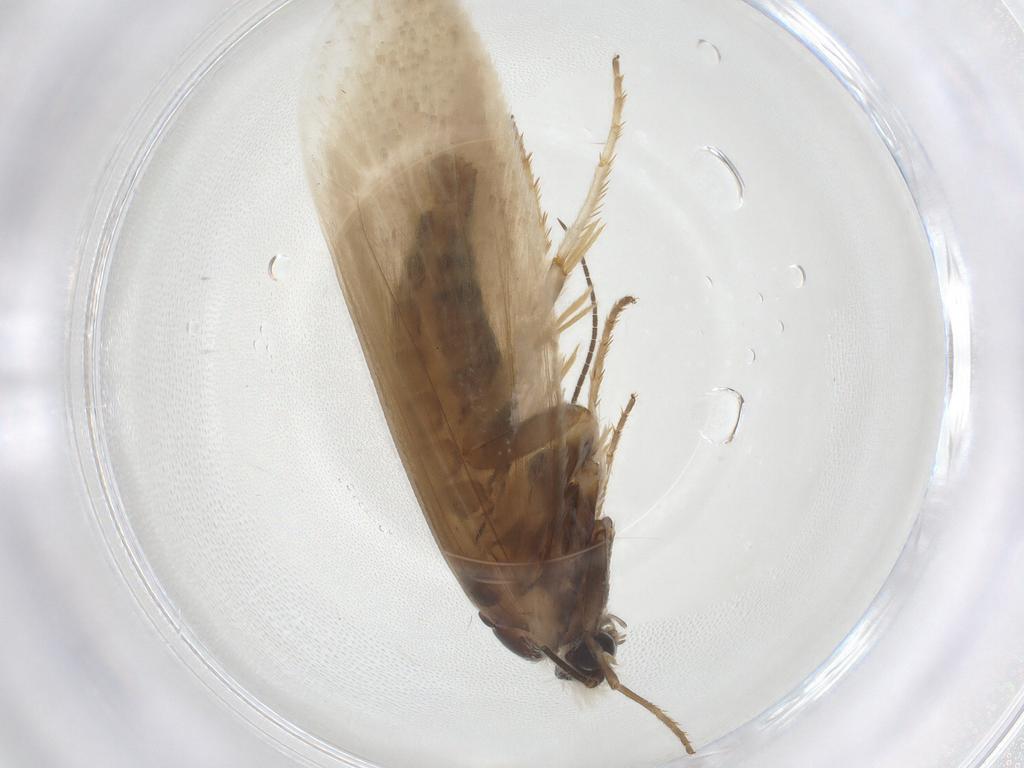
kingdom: Animalia
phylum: Arthropoda
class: Insecta
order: Lepidoptera
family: Tridentaformidae
